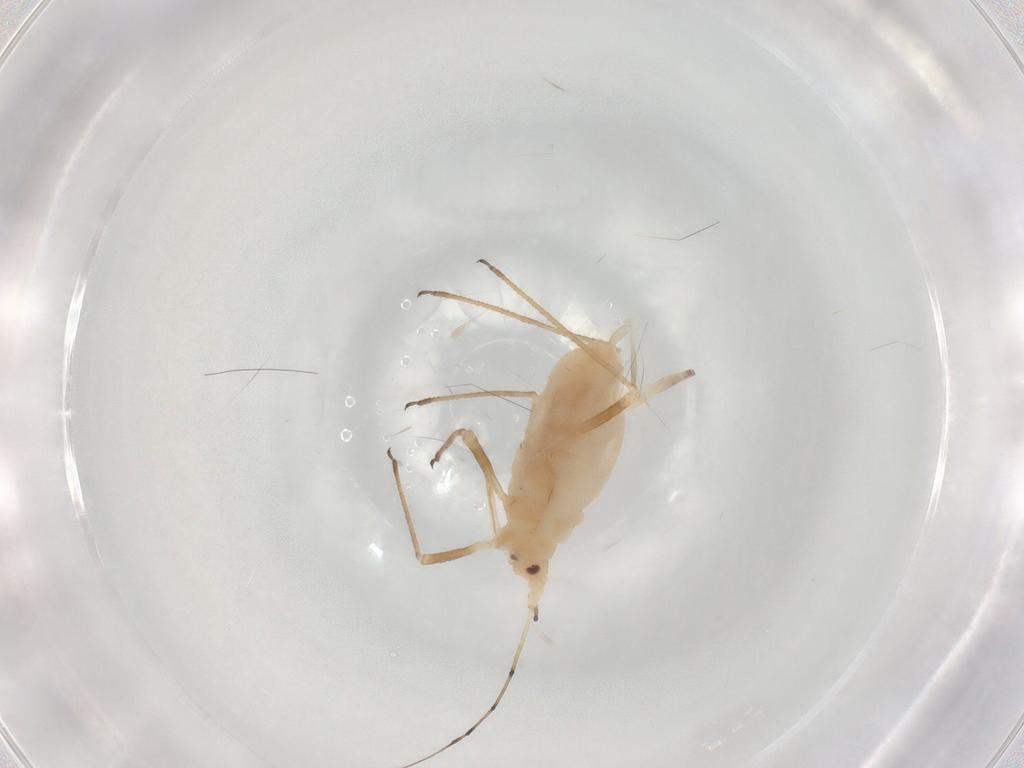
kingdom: Animalia
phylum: Arthropoda
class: Insecta
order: Hemiptera
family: Aphididae
